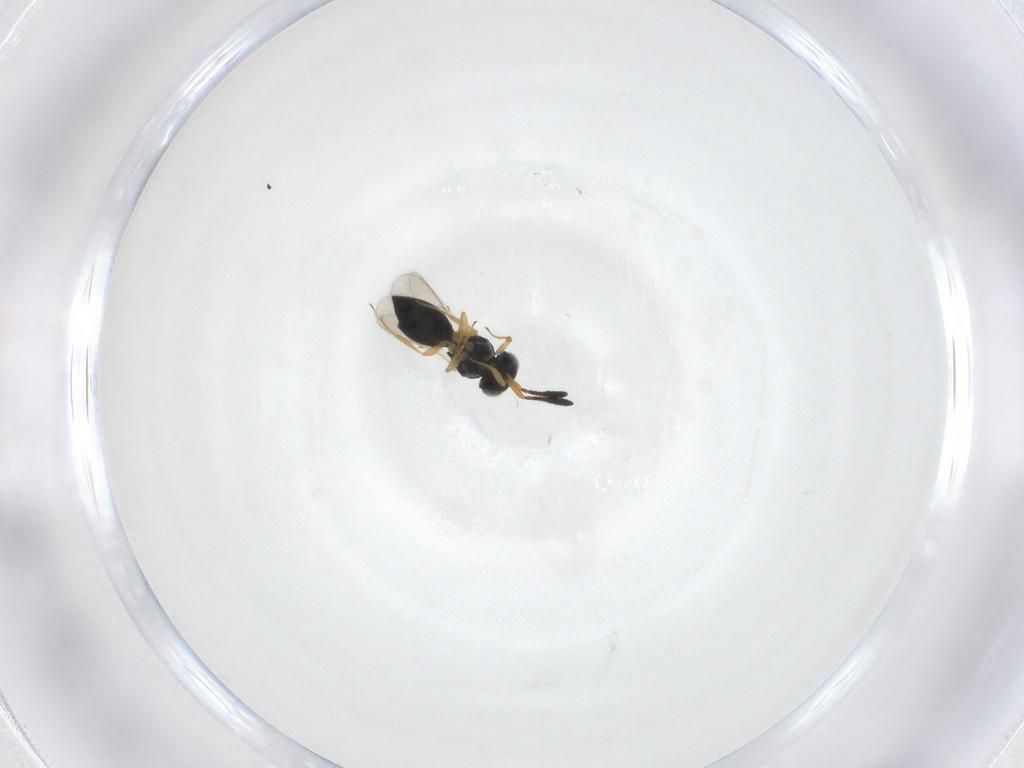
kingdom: Animalia
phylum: Arthropoda
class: Insecta
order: Hymenoptera
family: Scelionidae
